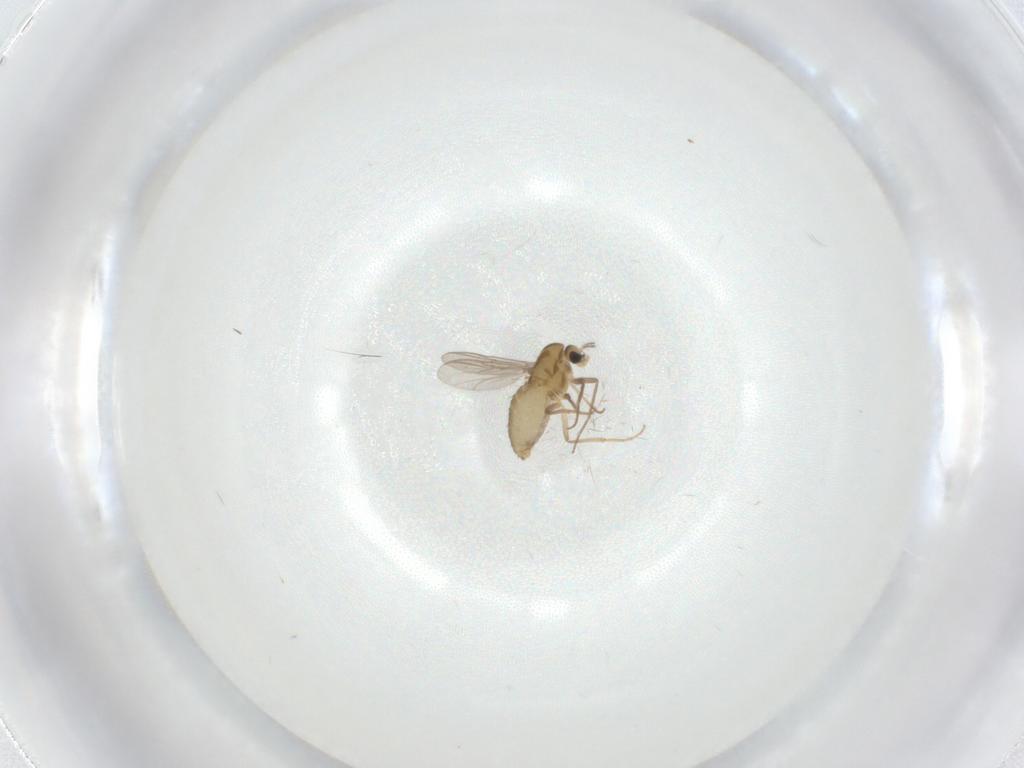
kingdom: Animalia
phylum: Arthropoda
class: Insecta
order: Diptera
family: Chironomidae
